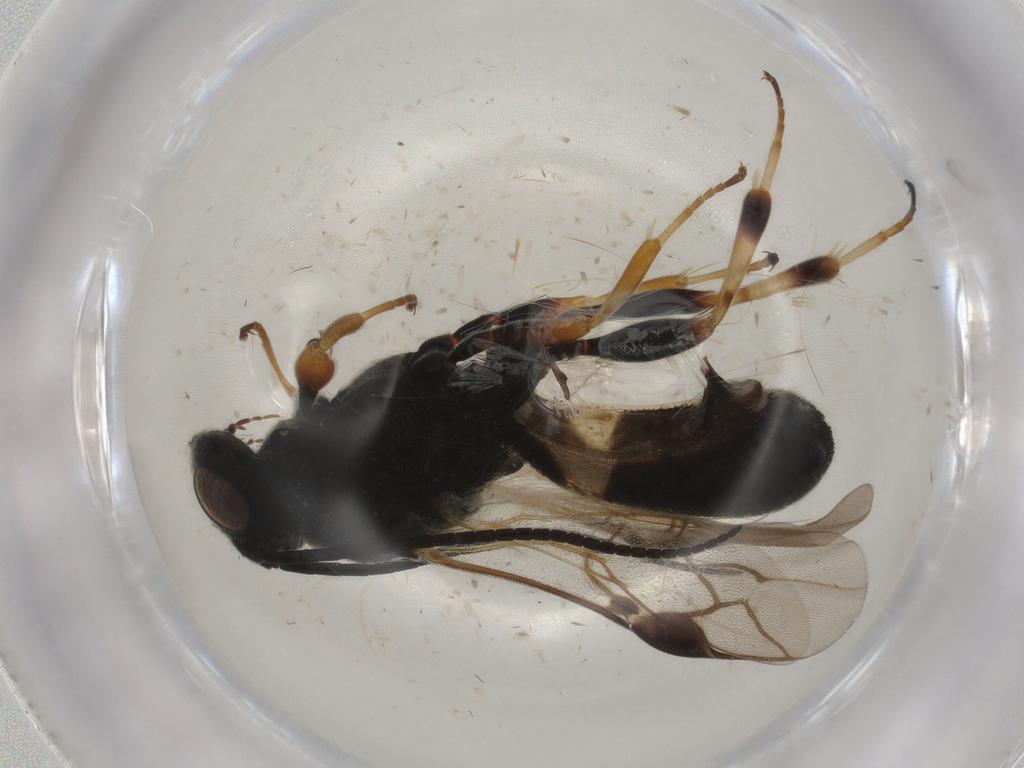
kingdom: Animalia
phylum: Arthropoda
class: Insecta
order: Hymenoptera
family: Braconidae
